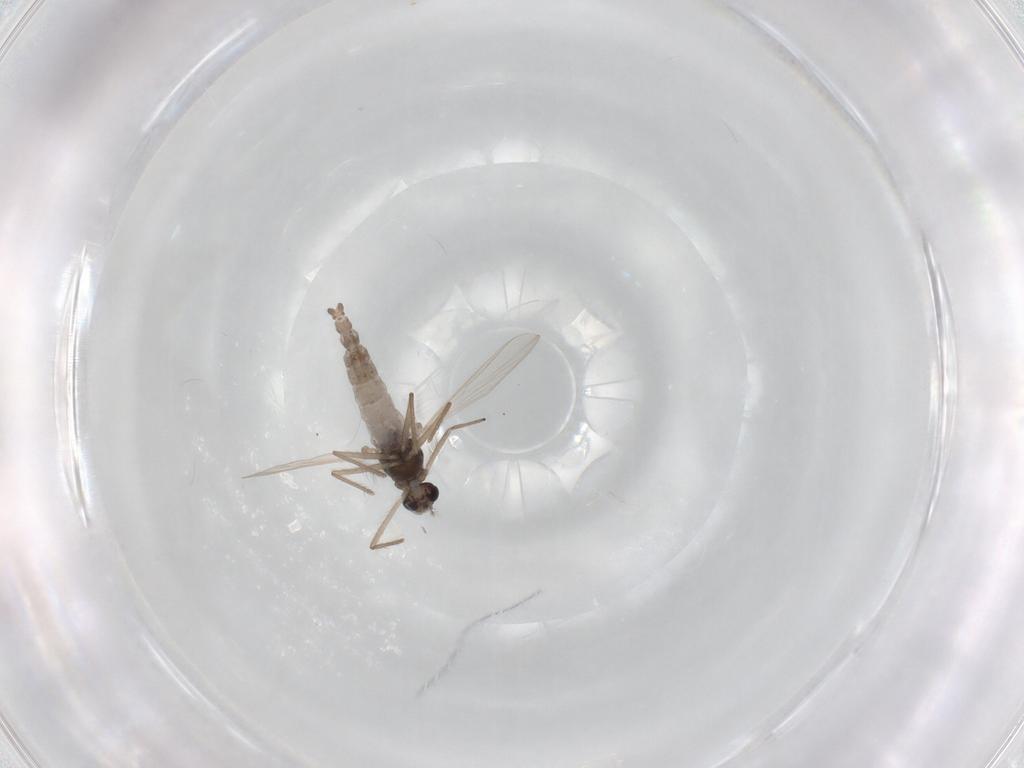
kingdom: Animalia
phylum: Arthropoda
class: Insecta
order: Diptera
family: Chironomidae
